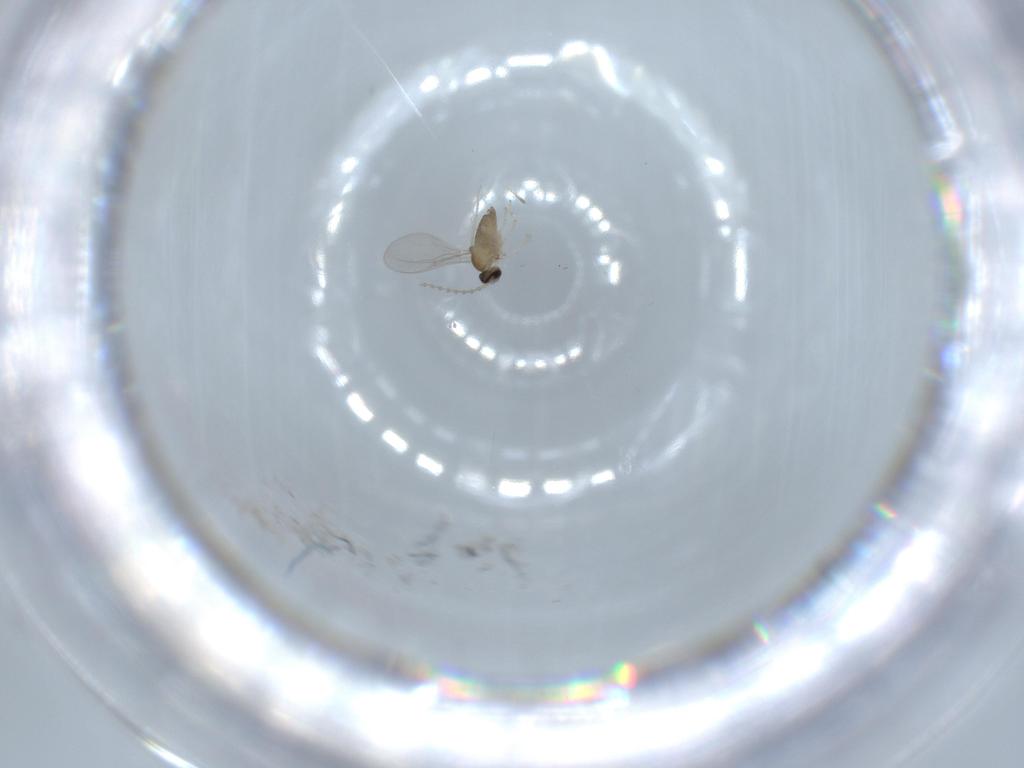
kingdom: Animalia
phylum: Arthropoda
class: Insecta
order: Diptera
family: Cecidomyiidae
